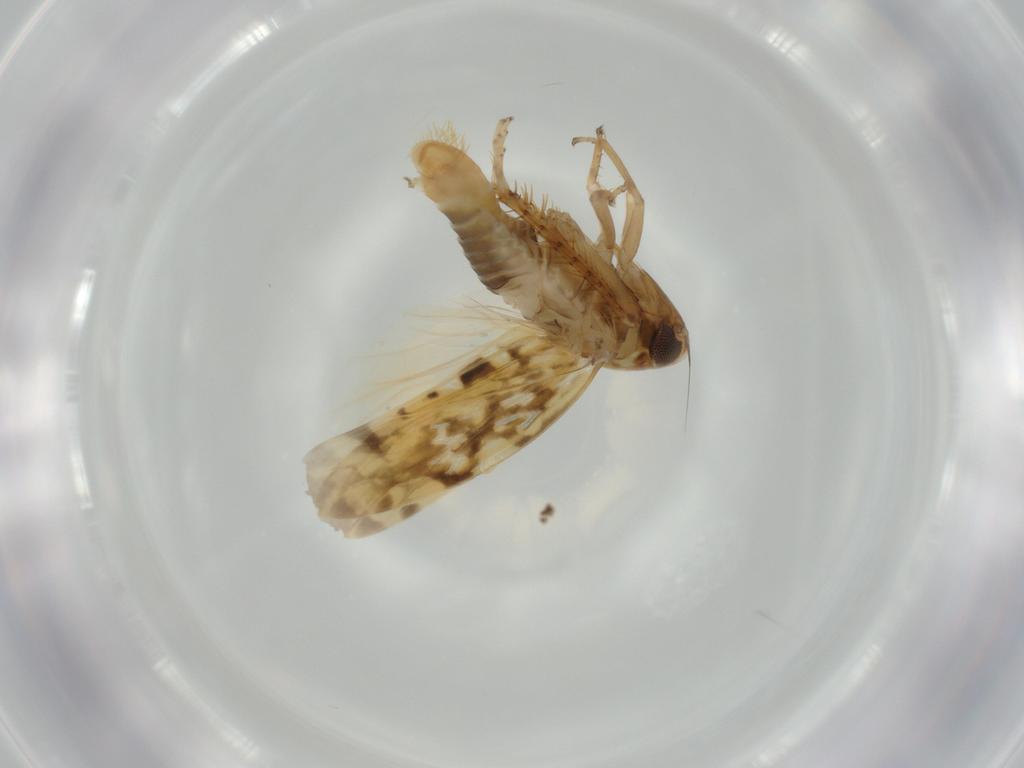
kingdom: Animalia
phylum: Arthropoda
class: Insecta
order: Hemiptera
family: Cicadellidae
